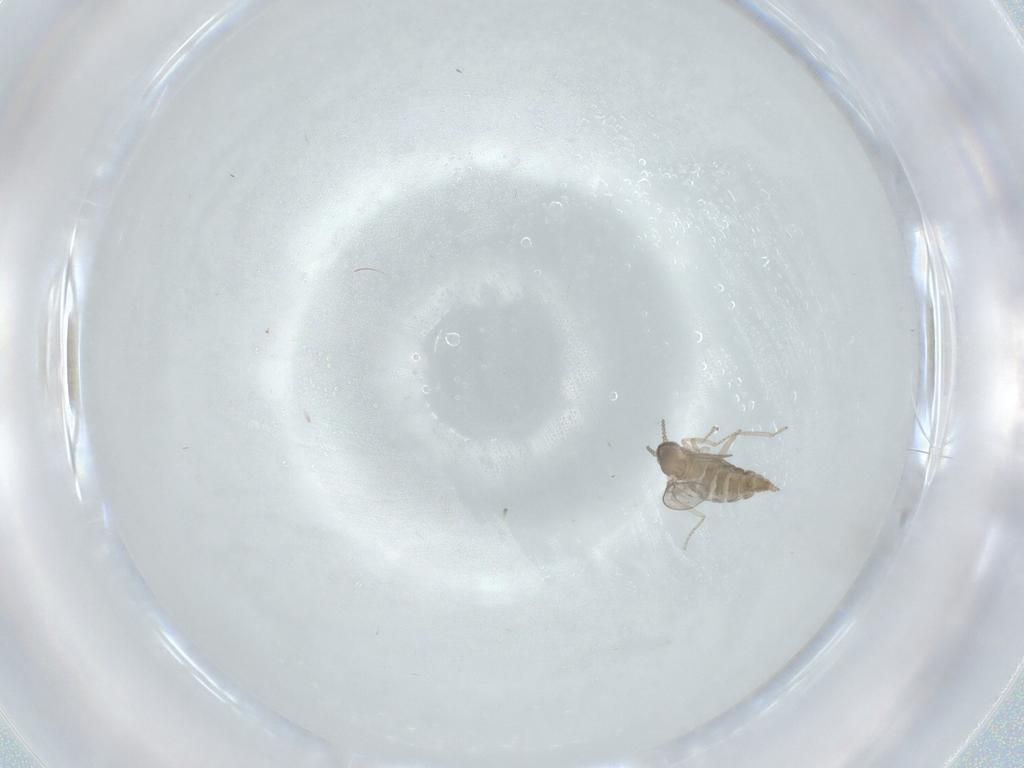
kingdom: Animalia
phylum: Arthropoda
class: Insecta
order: Diptera
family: Cecidomyiidae
